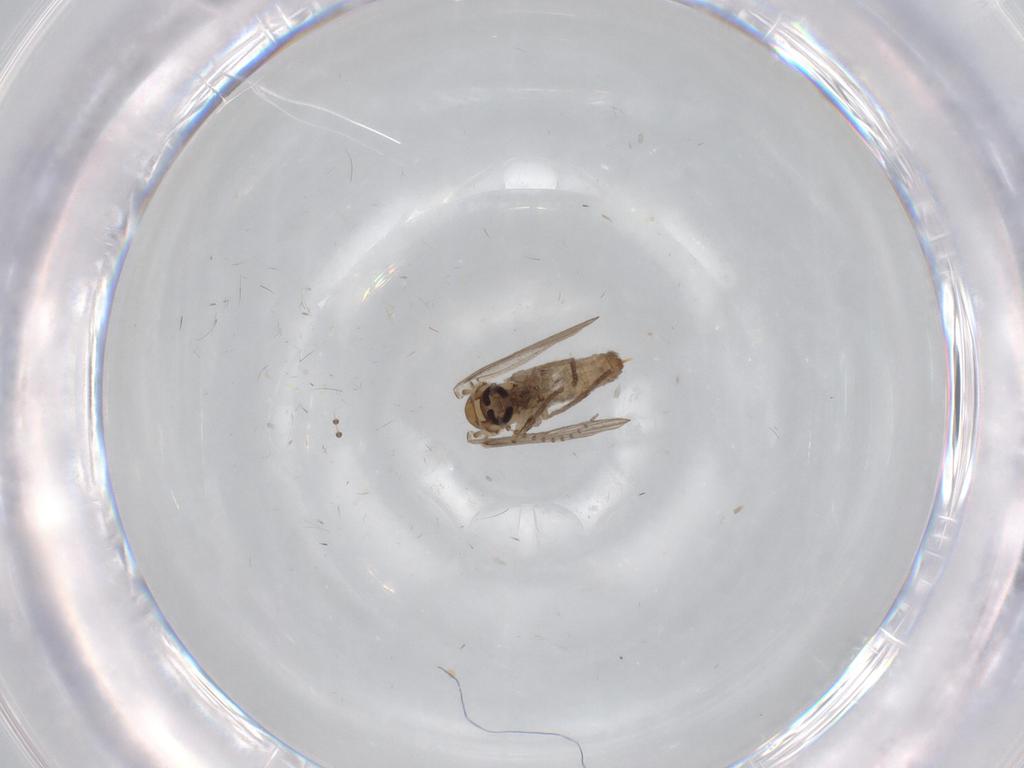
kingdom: Animalia
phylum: Arthropoda
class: Insecta
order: Diptera
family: Psychodidae
